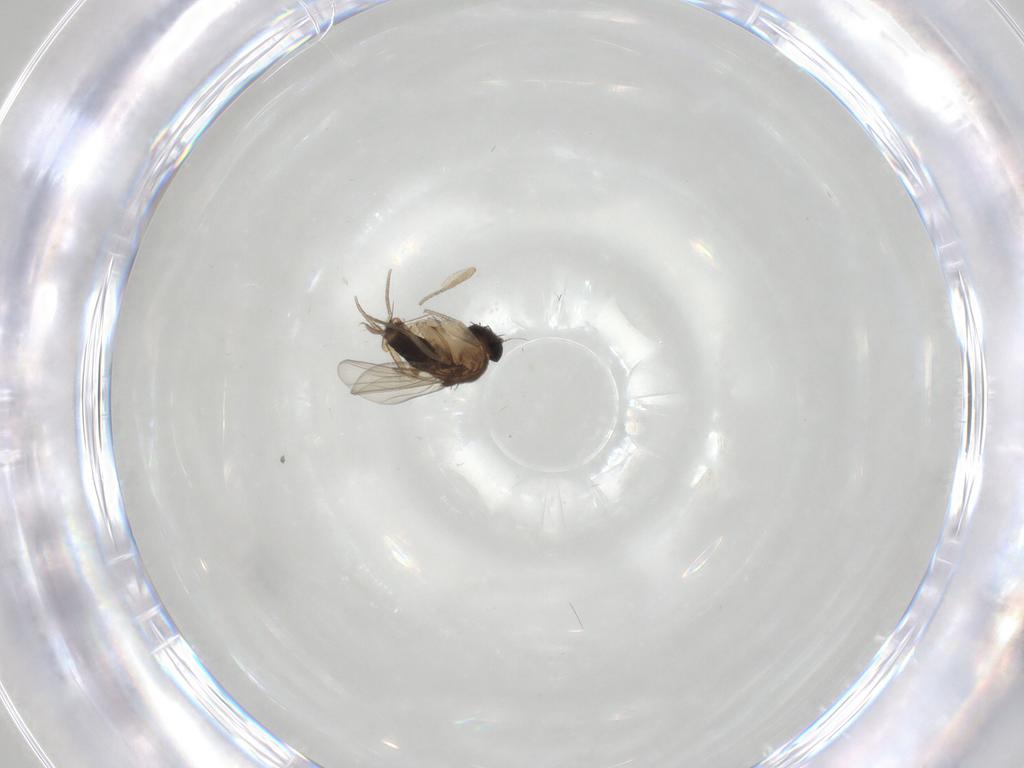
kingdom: Animalia
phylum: Arthropoda
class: Insecta
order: Diptera
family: Phoridae
